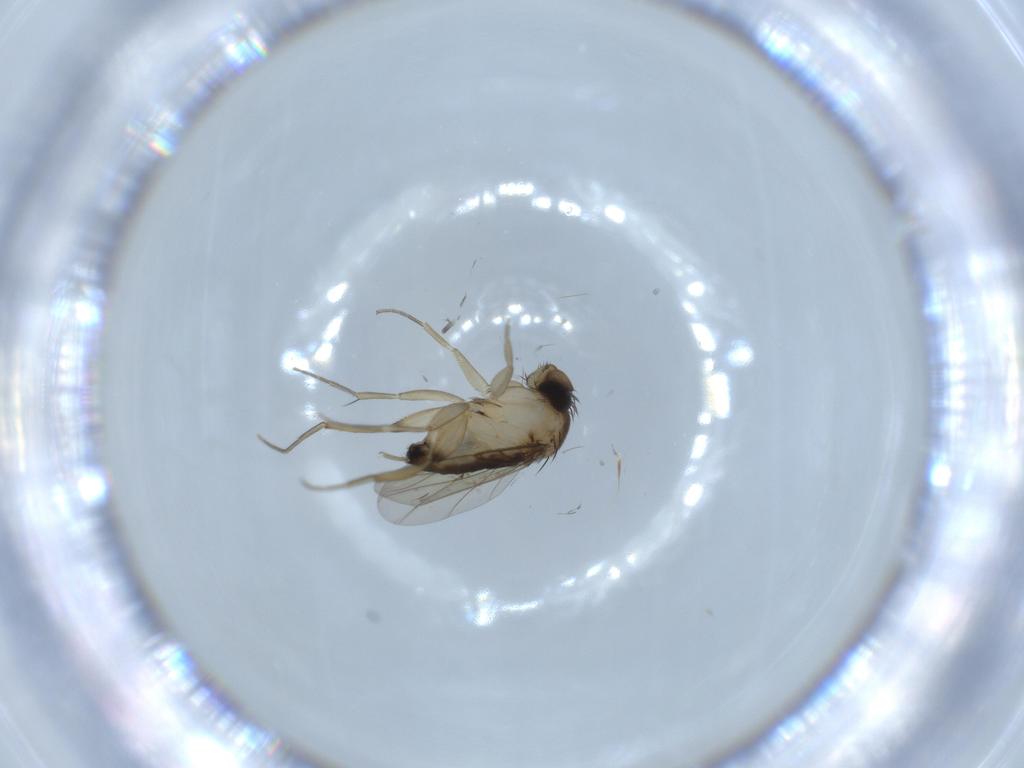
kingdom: Animalia
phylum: Arthropoda
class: Insecta
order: Diptera
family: Phoridae
